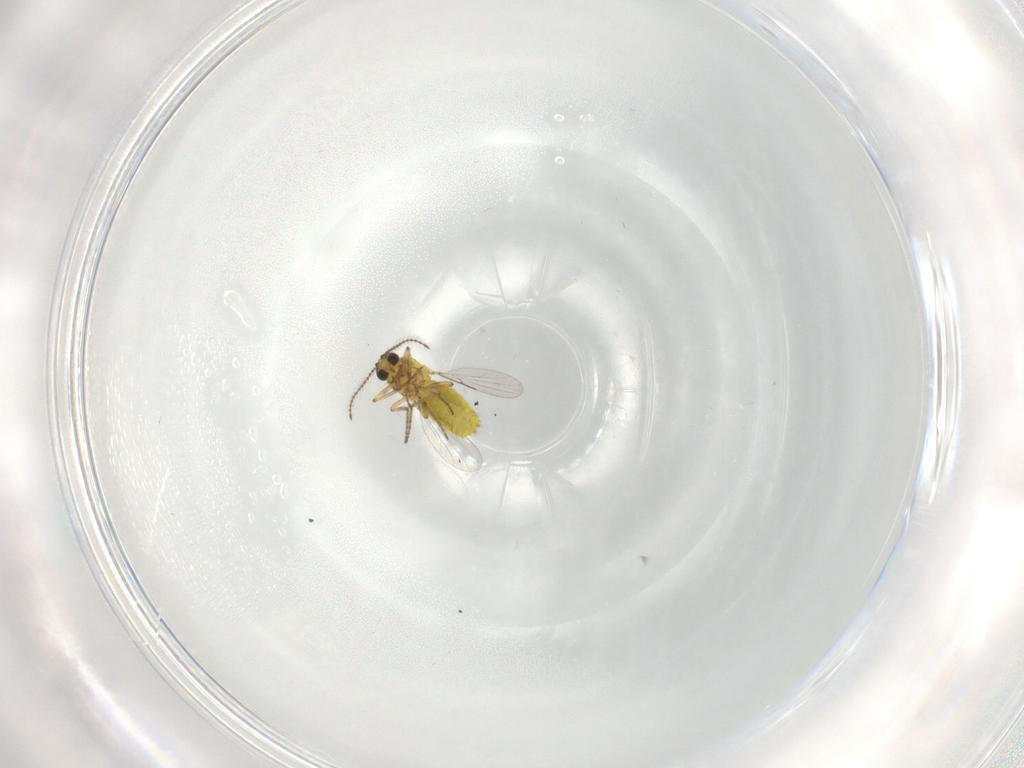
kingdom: Animalia
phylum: Arthropoda
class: Insecta
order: Diptera
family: Ceratopogonidae
